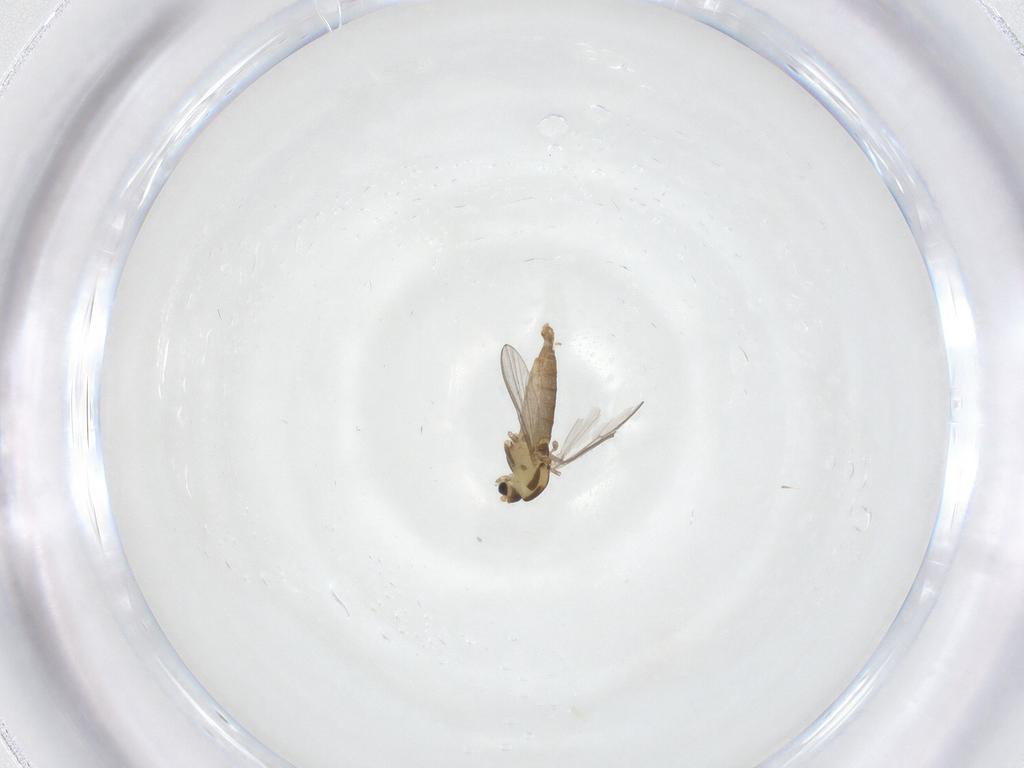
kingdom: Animalia
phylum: Arthropoda
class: Insecta
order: Diptera
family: Chironomidae
